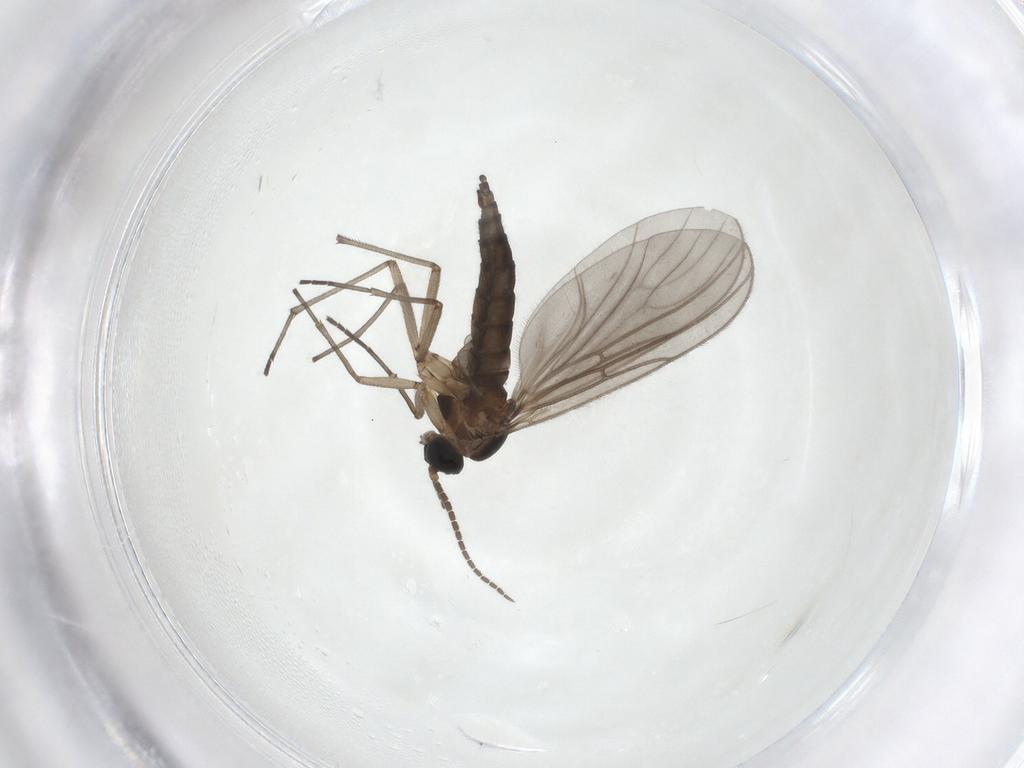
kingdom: Animalia
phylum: Arthropoda
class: Insecta
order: Diptera
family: Sciaridae
